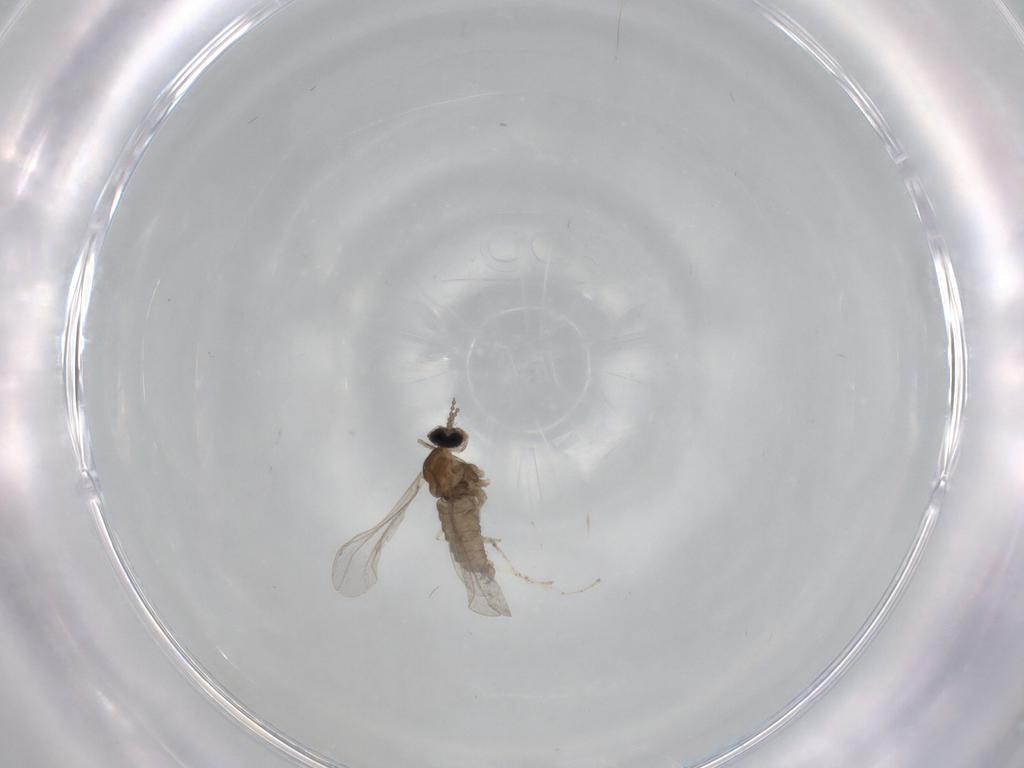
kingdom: Animalia
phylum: Arthropoda
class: Insecta
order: Diptera
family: Cecidomyiidae
